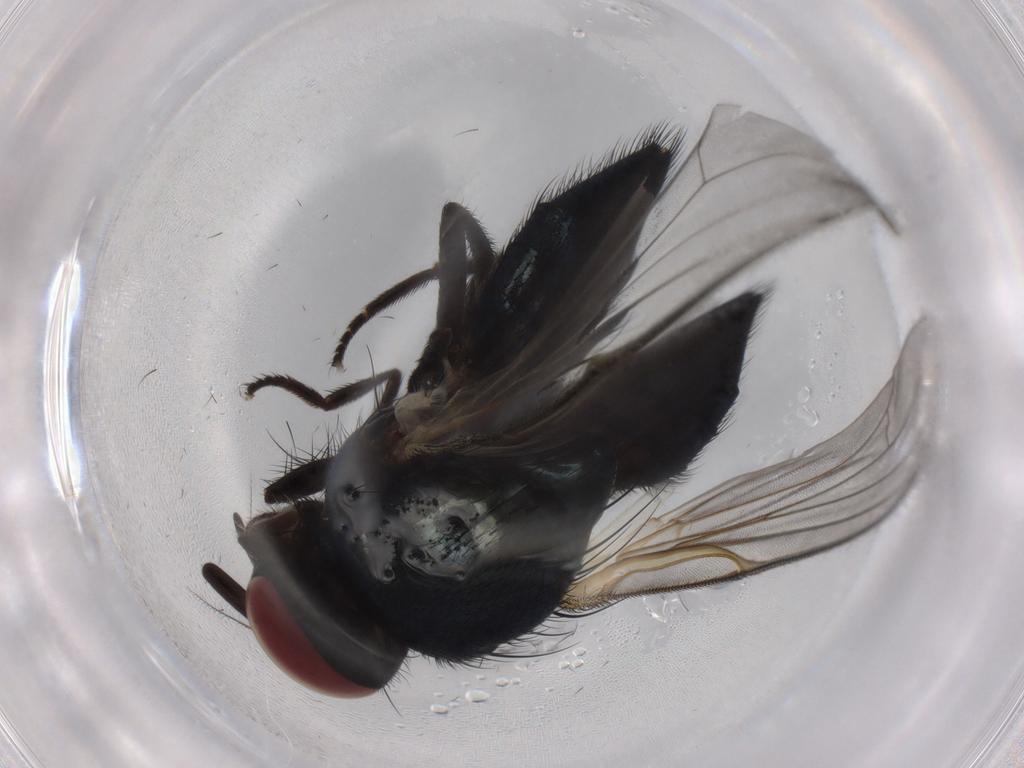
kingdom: Animalia
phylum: Arthropoda
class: Insecta
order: Diptera
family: Lonchaeidae
